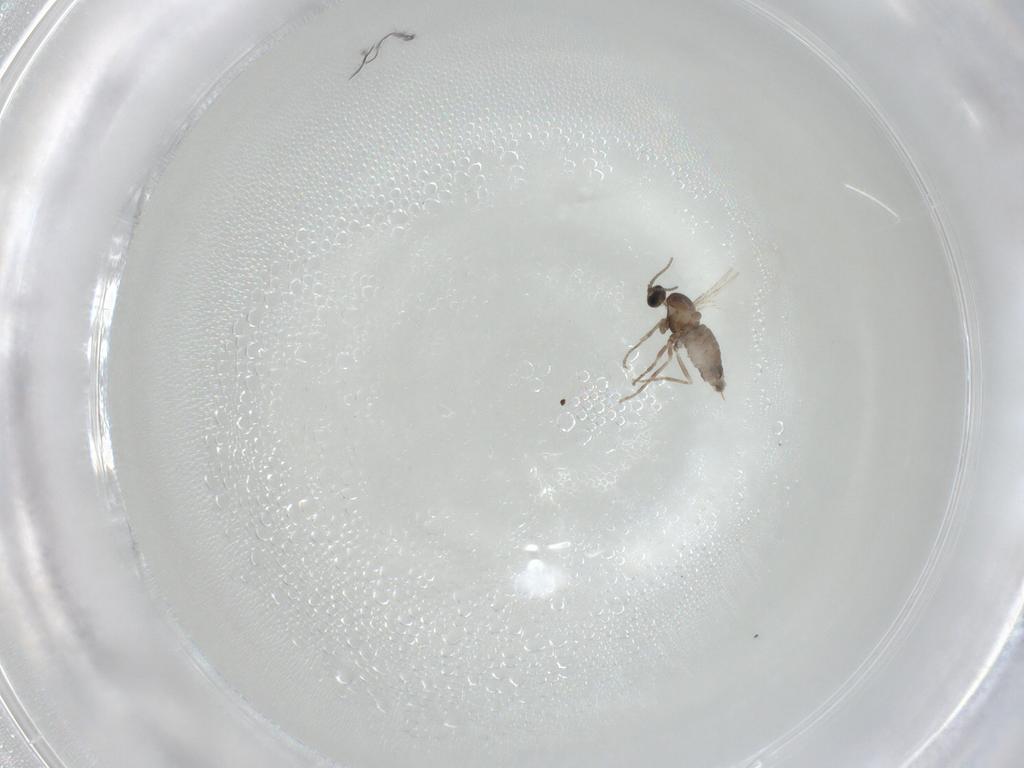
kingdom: Animalia
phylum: Arthropoda
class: Insecta
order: Diptera
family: Cecidomyiidae
